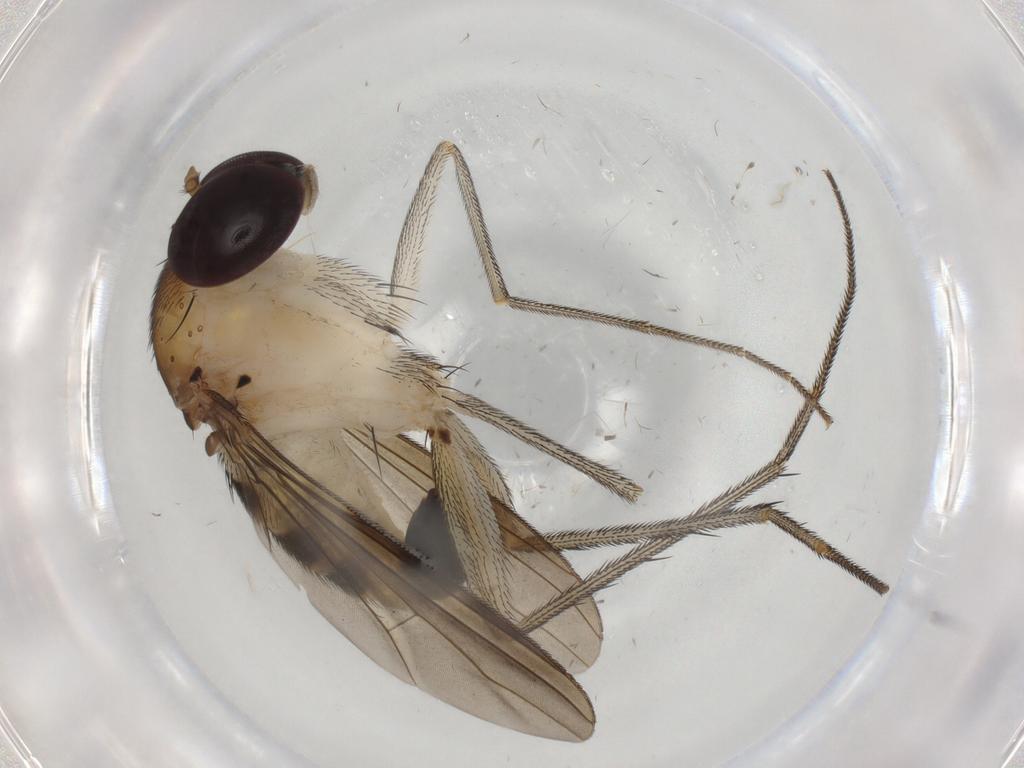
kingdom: Animalia
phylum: Arthropoda
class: Insecta
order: Diptera
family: Dolichopodidae
